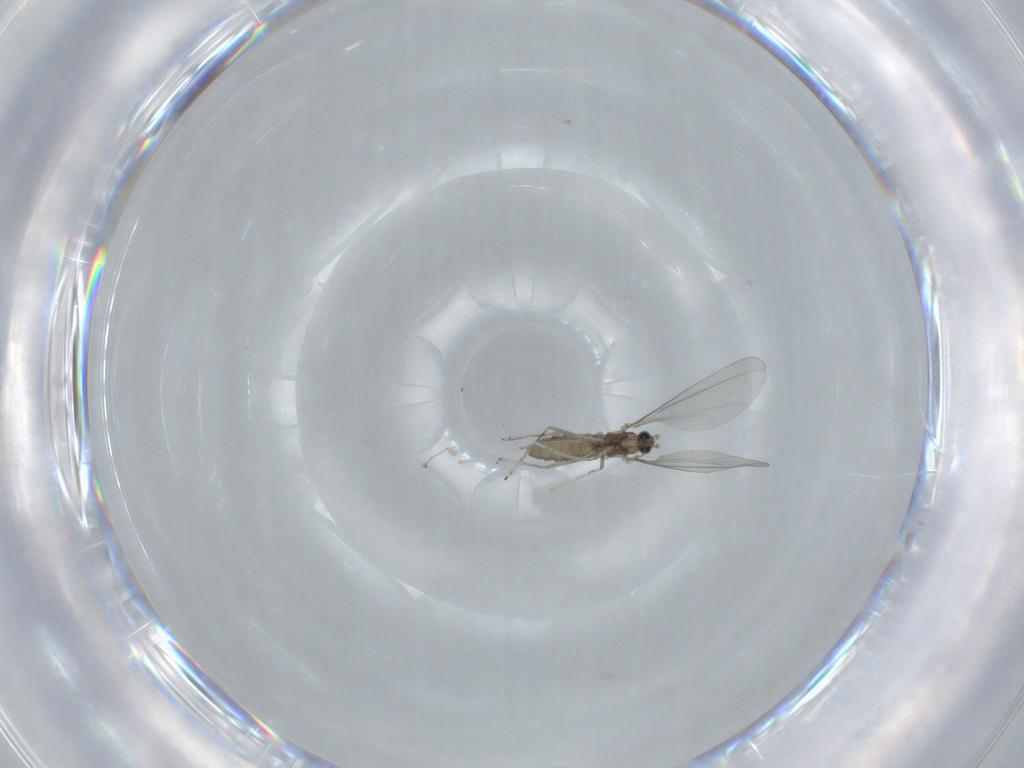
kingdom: Animalia
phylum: Arthropoda
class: Insecta
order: Diptera
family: Cecidomyiidae
